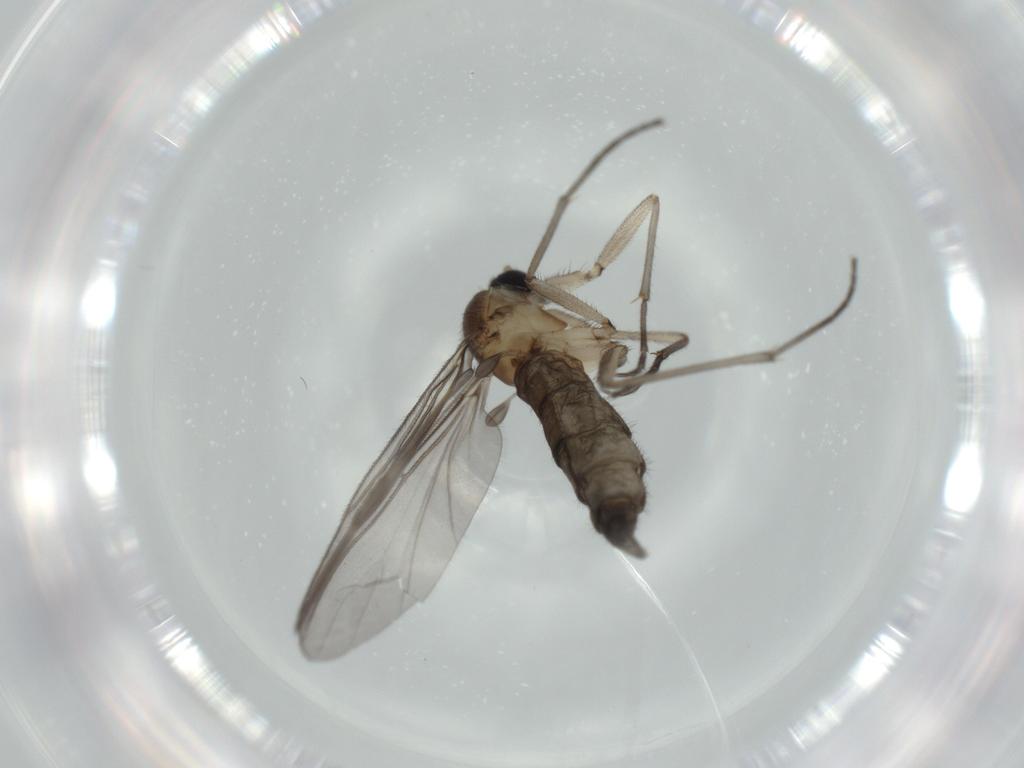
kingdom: Animalia
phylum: Arthropoda
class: Insecta
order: Diptera
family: Sciaridae
